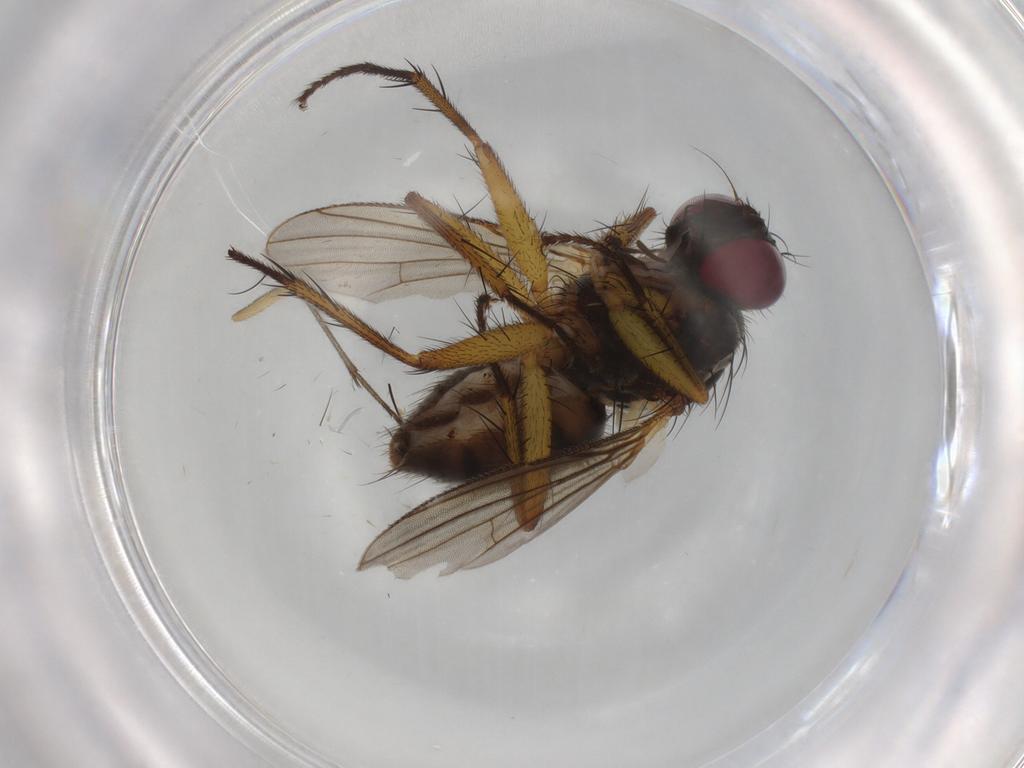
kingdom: Animalia
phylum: Arthropoda
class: Insecta
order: Diptera
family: Muscidae
